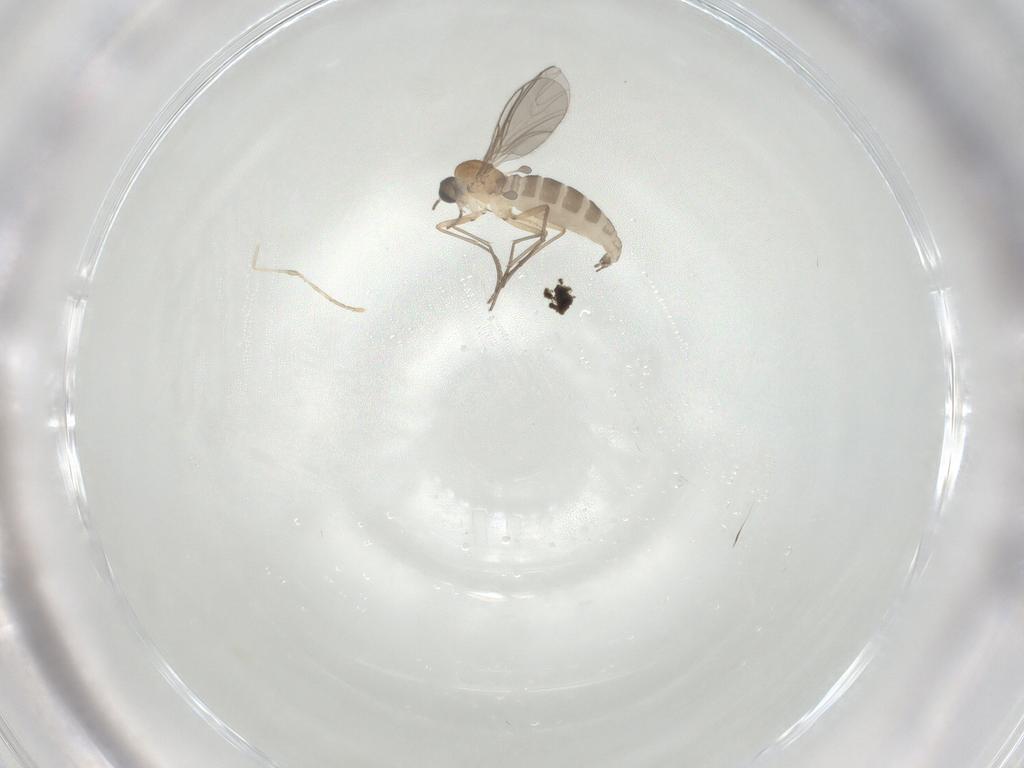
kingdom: Animalia
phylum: Arthropoda
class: Insecta
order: Diptera
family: Sciaridae
